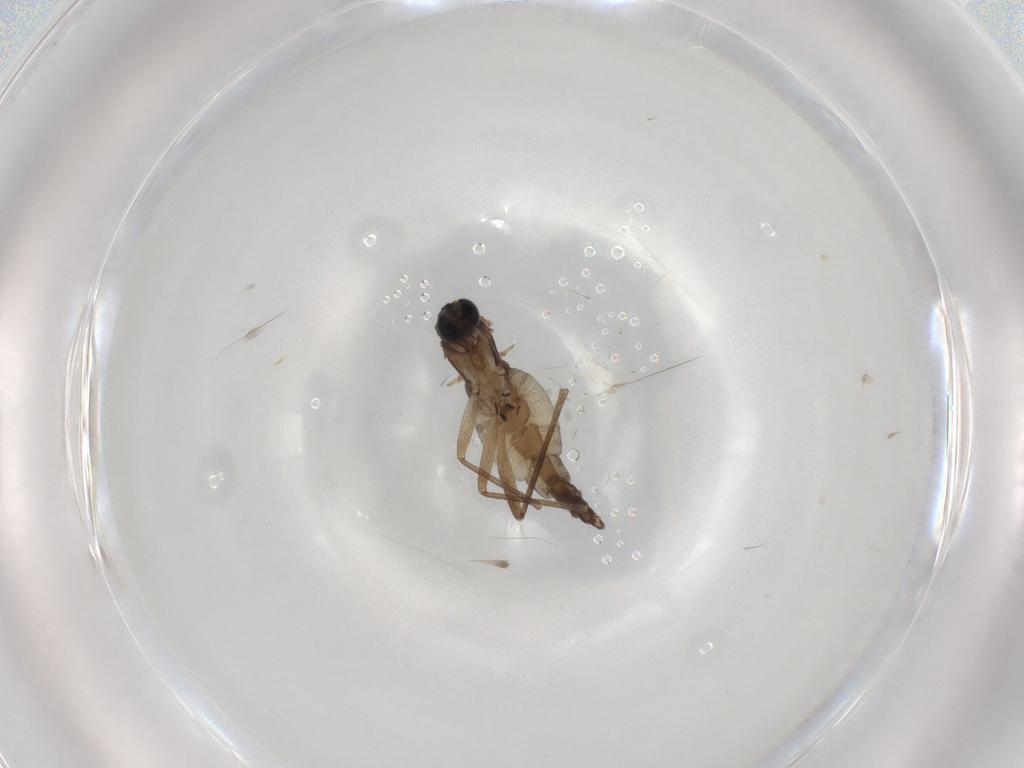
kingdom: Animalia
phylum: Arthropoda
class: Insecta
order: Diptera
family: Sciaridae
